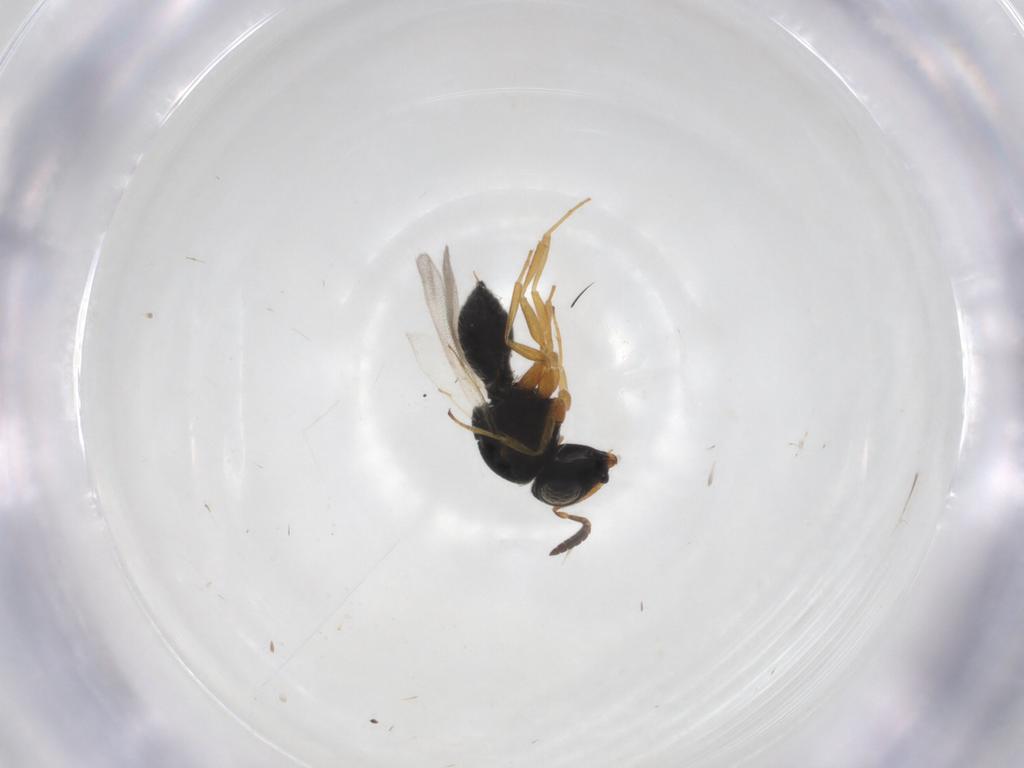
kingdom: Animalia
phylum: Arthropoda
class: Insecta
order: Hymenoptera
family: Scelionidae
